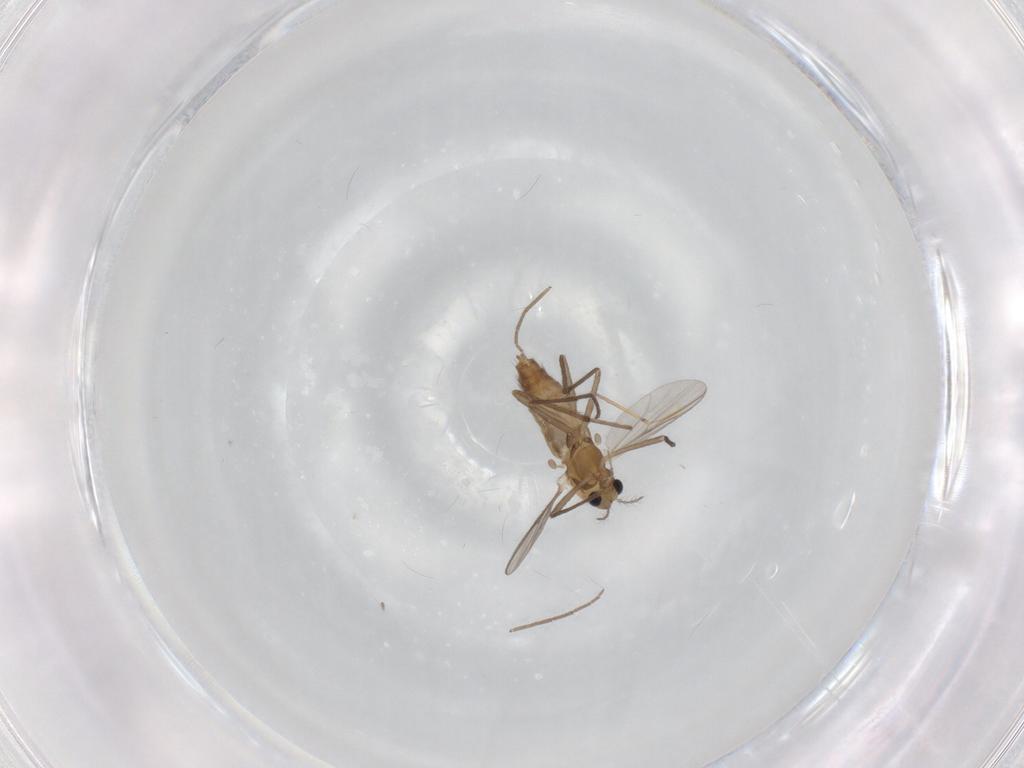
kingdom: Animalia
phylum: Arthropoda
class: Insecta
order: Diptera
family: Chironomidae
